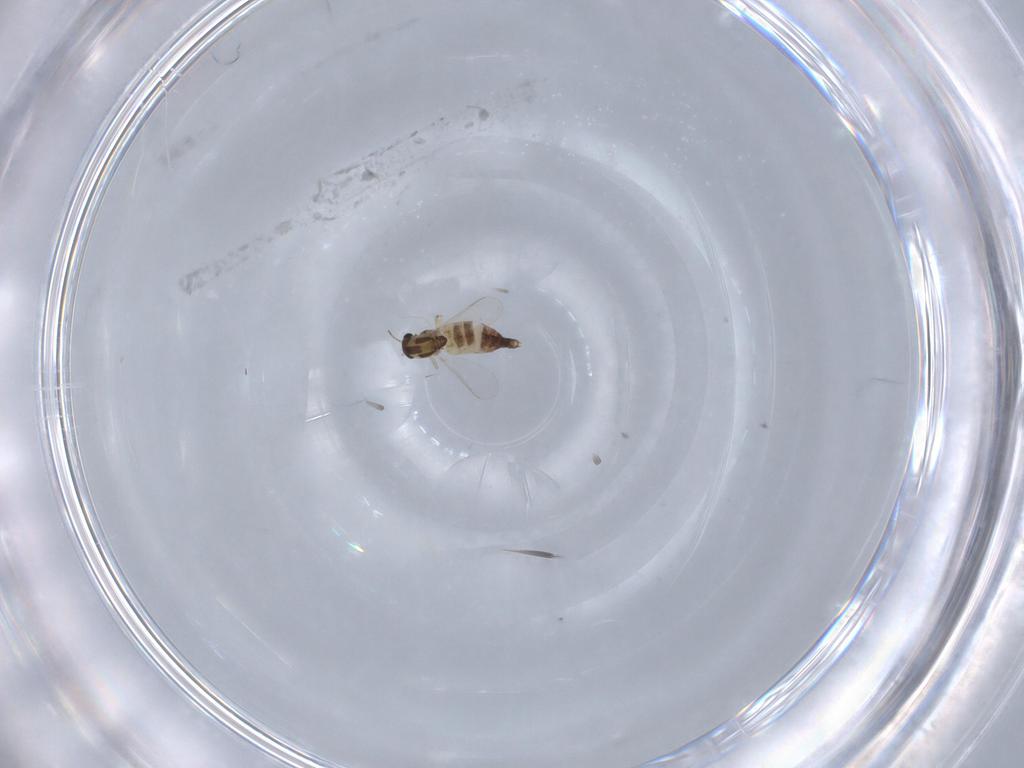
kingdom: Animalia
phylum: Arthropoda
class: Insecta
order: Diptera
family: Chironomidae
